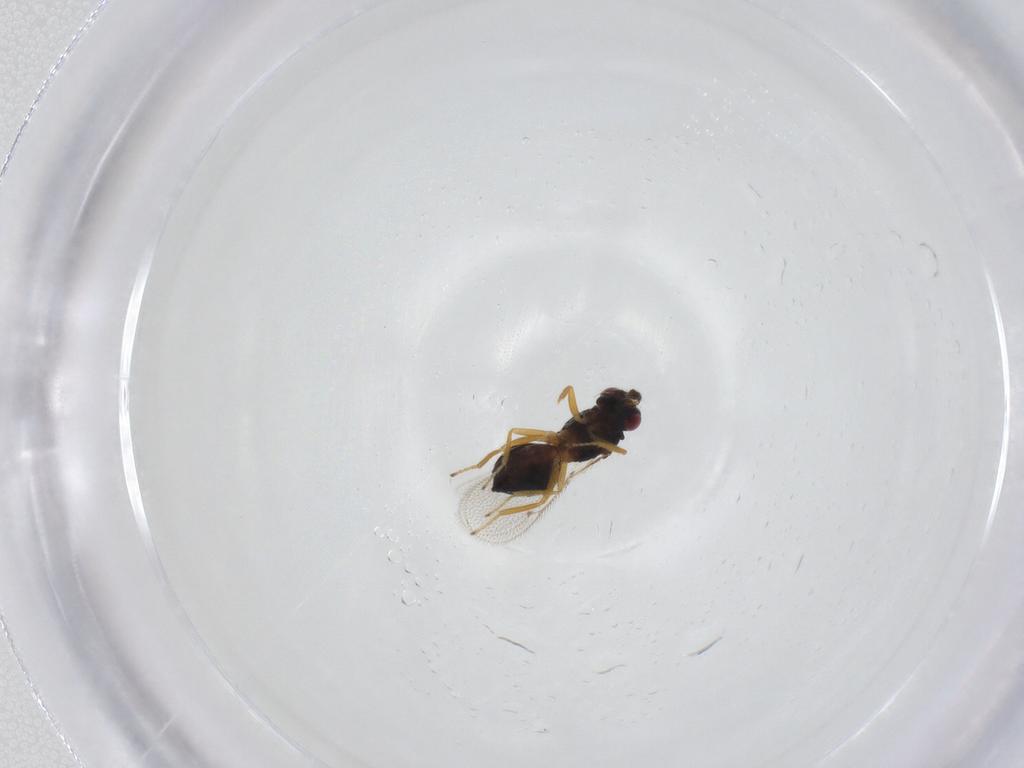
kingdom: Animalia
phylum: Arthropoda
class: Insecta
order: Hymenoptera
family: Eulophidae
